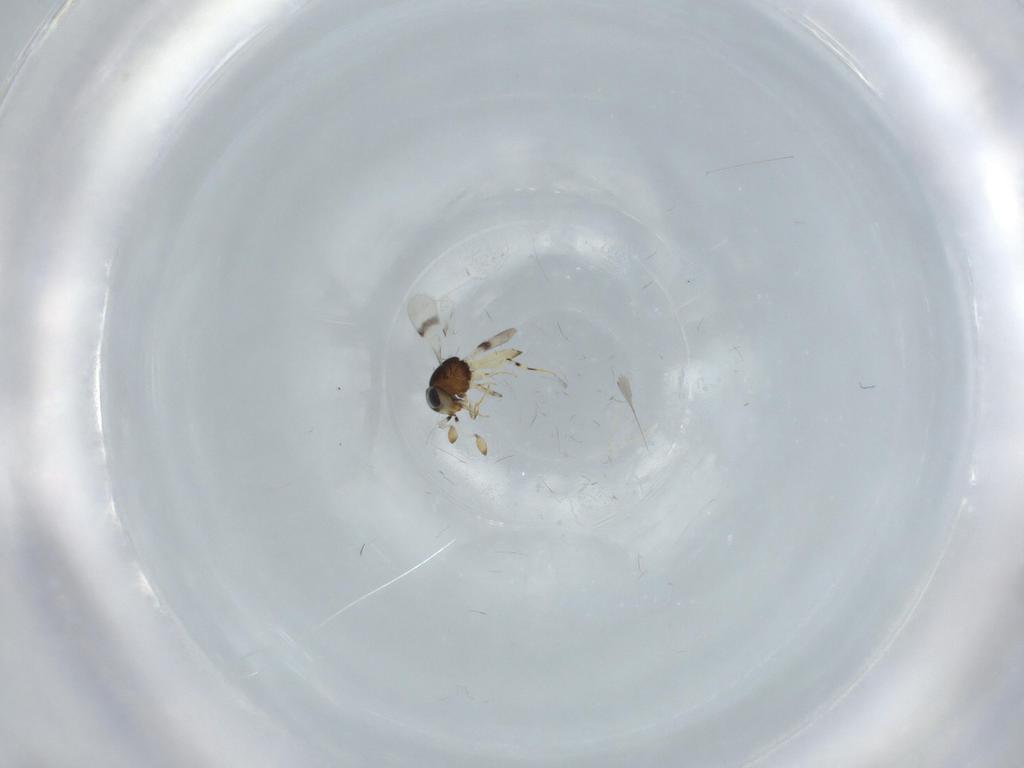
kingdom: Animalia
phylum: Arthropoda
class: Insecta
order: Hymenoptera
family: Scelionidae
